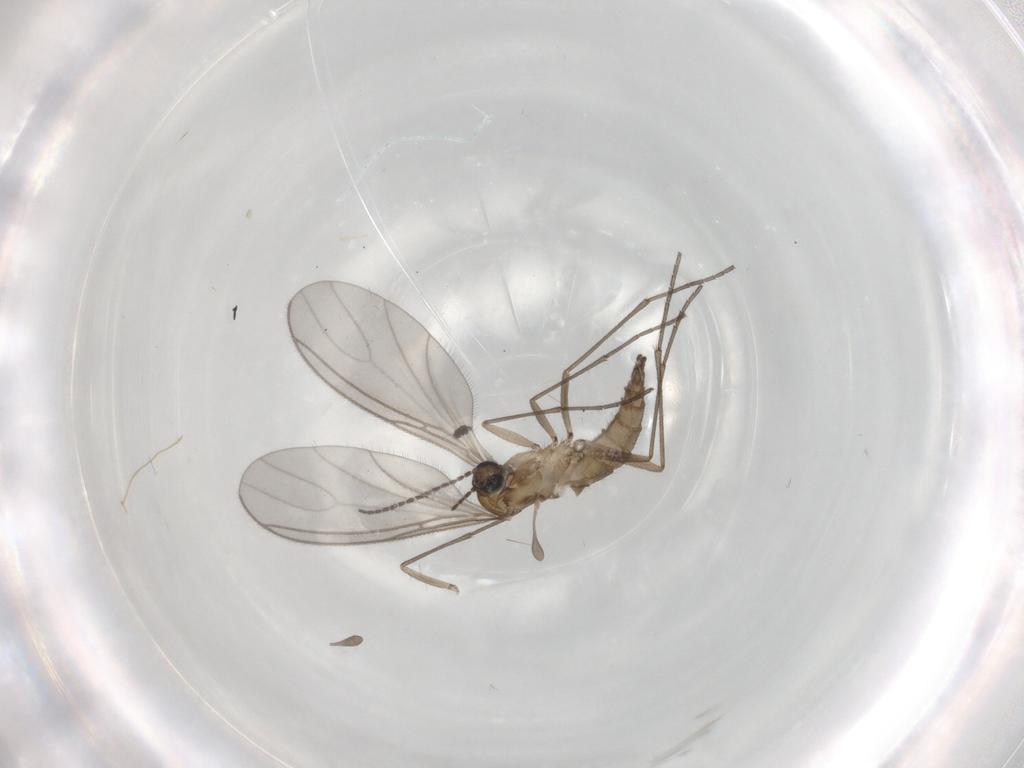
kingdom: Animalia
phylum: Arthropoda
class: Insecta
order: Diptera
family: Sciaridae
